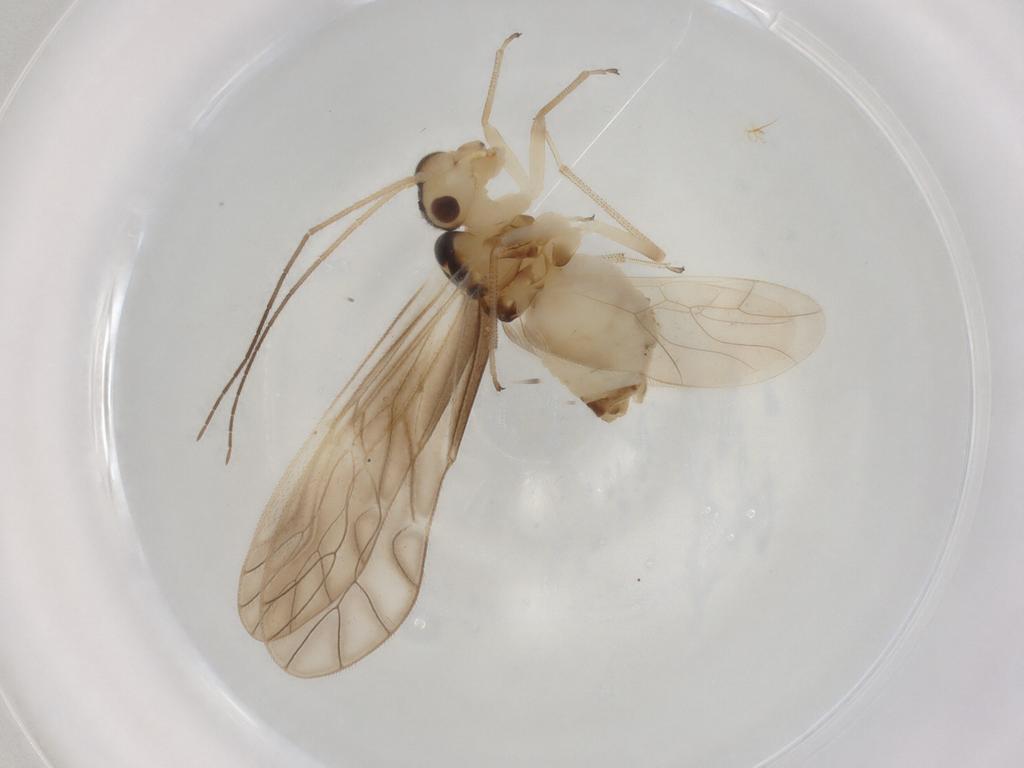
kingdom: Animalia
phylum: Arthropoda
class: Insecta
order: Psocodea
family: Caeciliusidae
